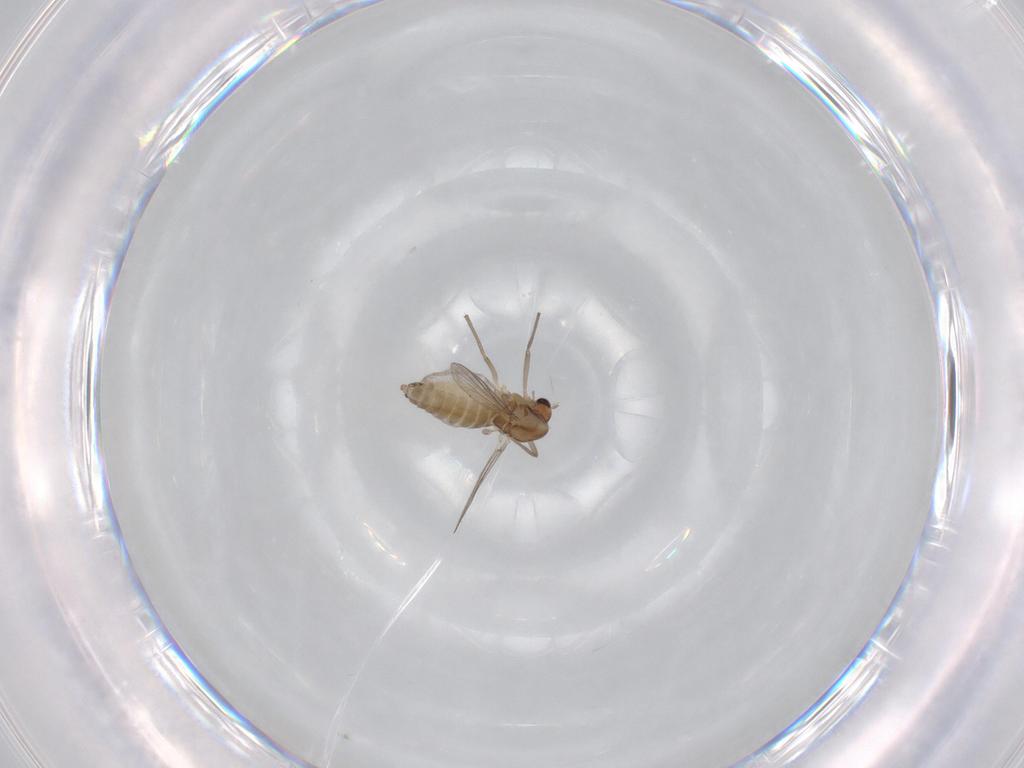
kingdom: Animalia
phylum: Arthropoda
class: Insecta
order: Diptera
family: Chironomidae
